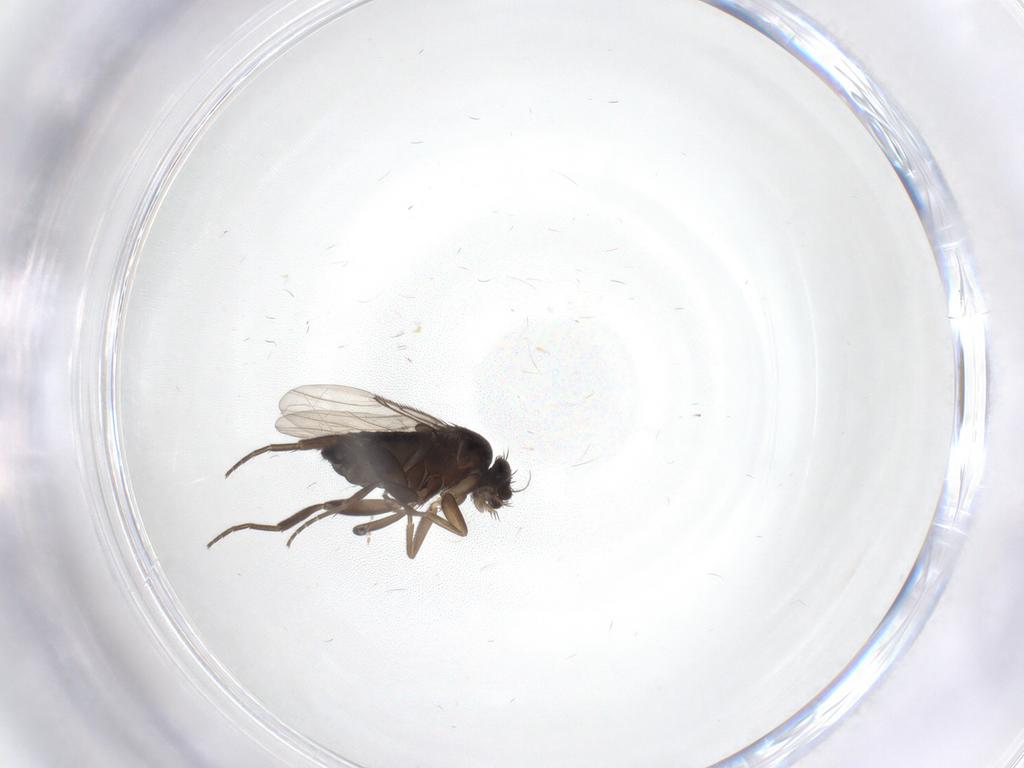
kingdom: Animalia
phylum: Arthropoda
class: Insecta
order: Diptera
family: Phoridae
